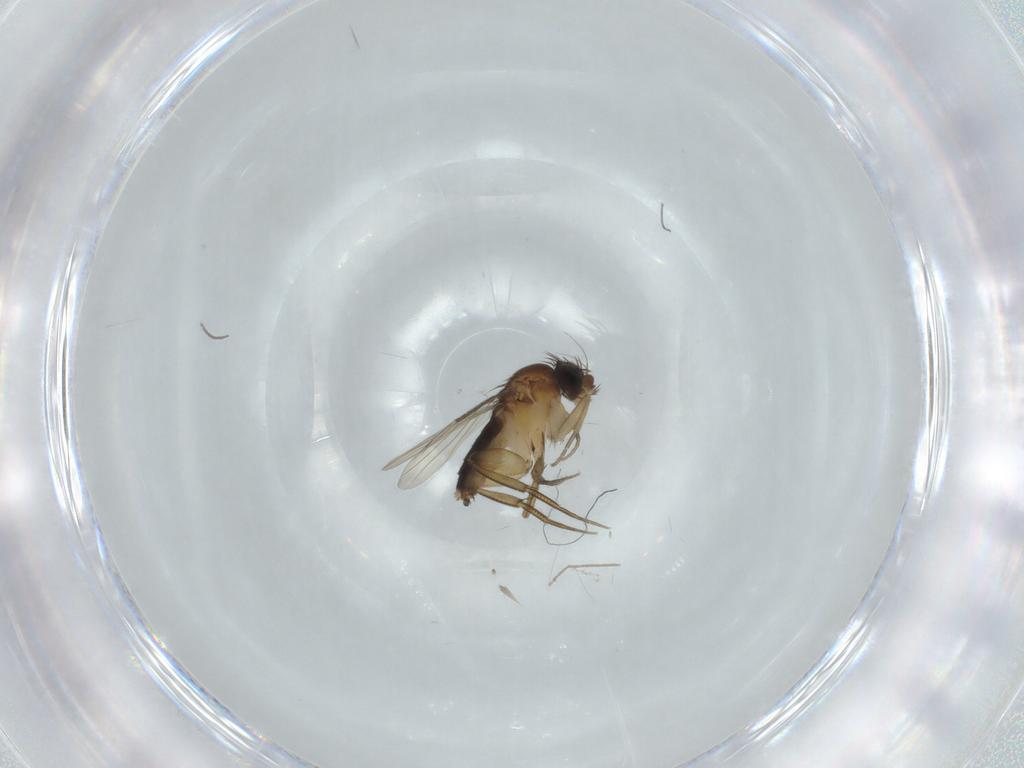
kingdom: Animalia
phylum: Arthropoda
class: Insecta
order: Diptera
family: Phoridae
